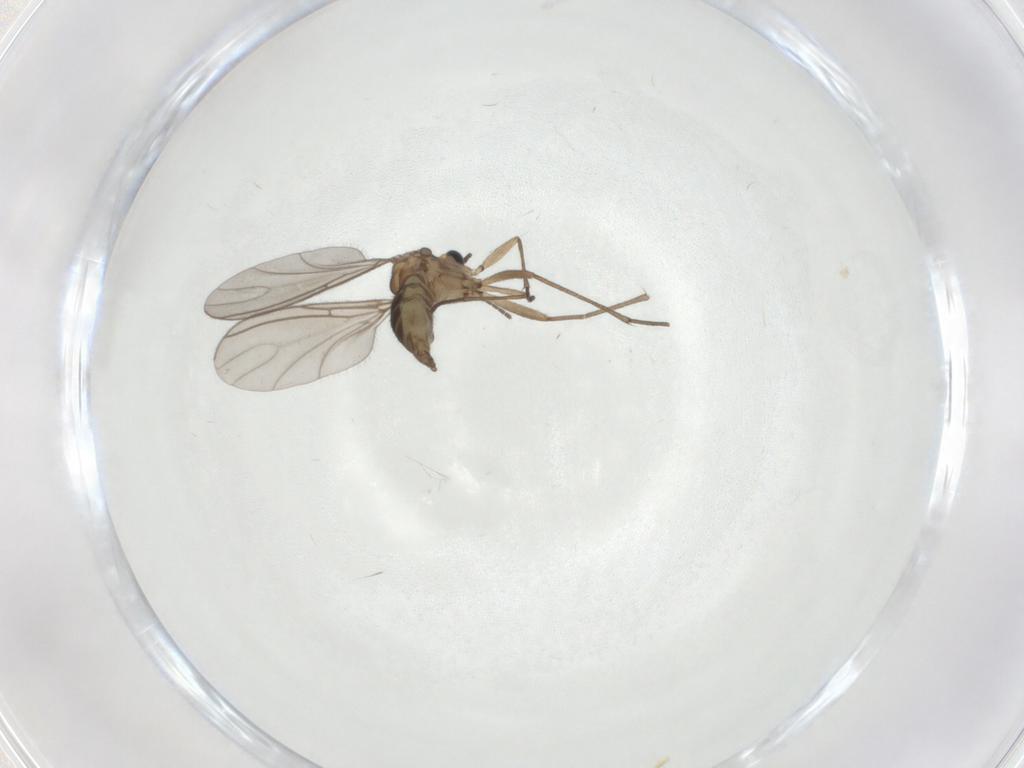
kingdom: Animalia
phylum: Arthropoda
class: Insecta
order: Diptera
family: Sciaridae
